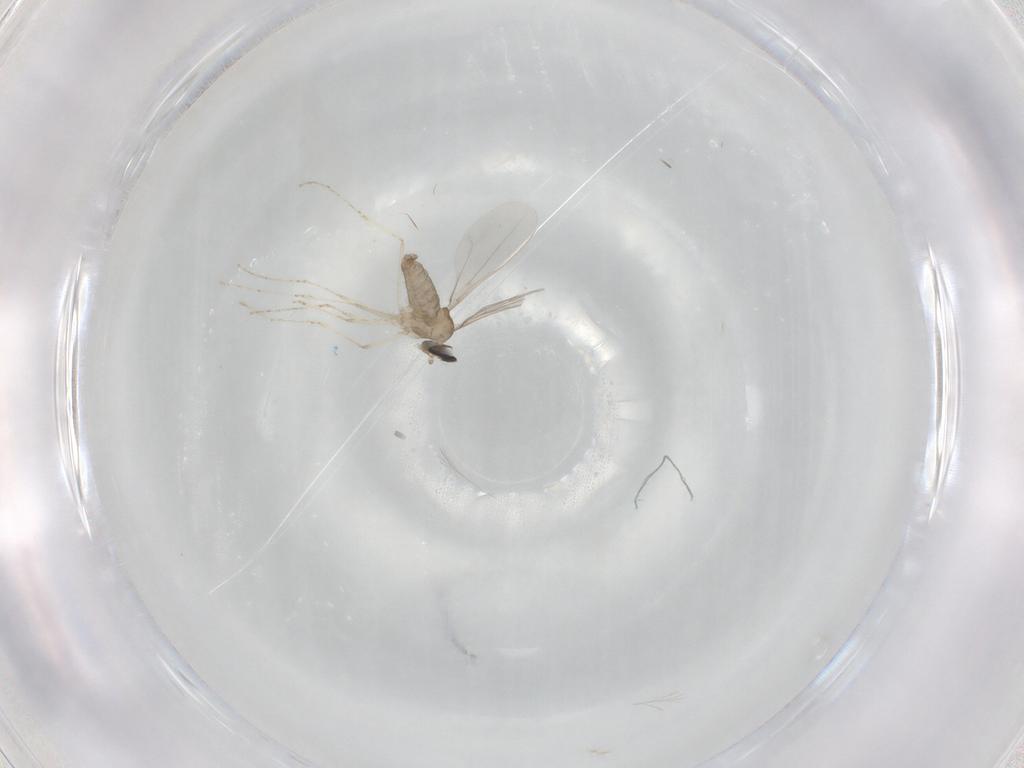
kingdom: Animalia
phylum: Arthropoda
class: Insecta
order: Diptera
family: Cecidomyiidae
